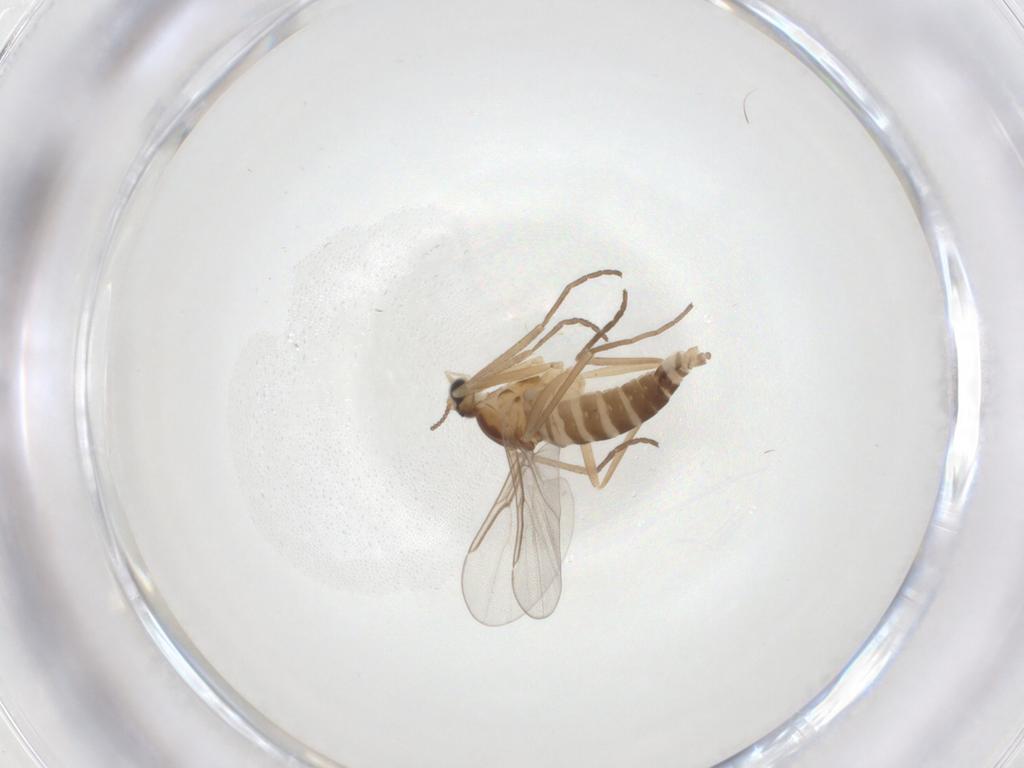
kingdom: Animalia
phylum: Arthropoda
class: Insecta
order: Diptera
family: Cecidomyiidae
